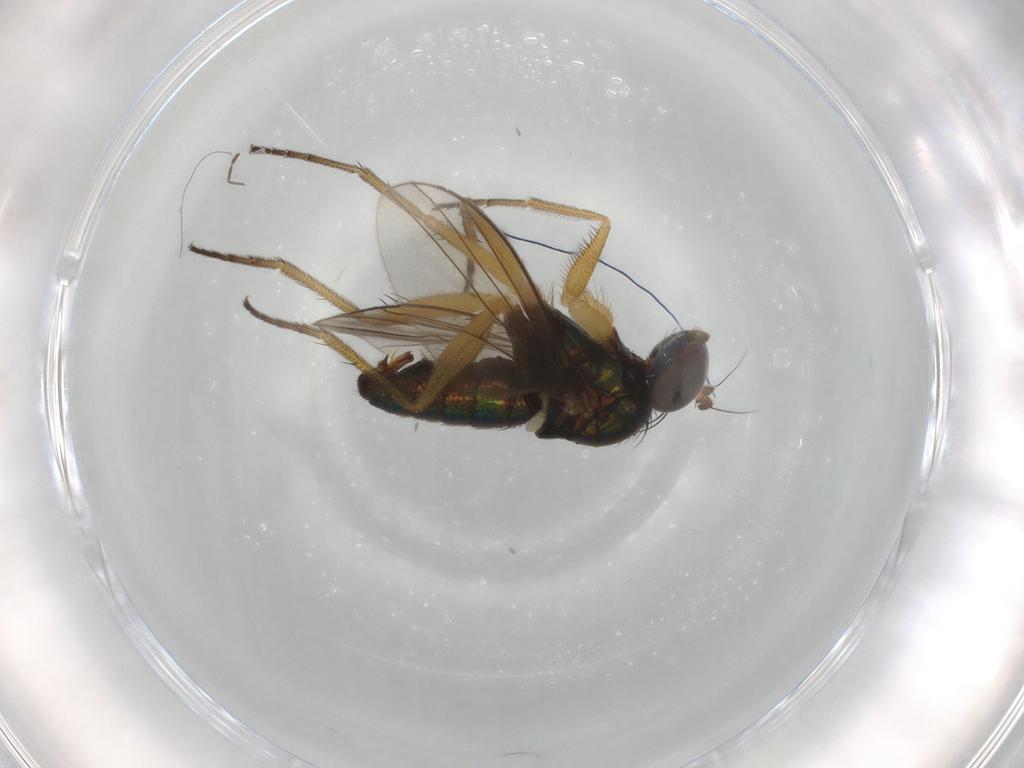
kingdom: Animalia
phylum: Arthropoda
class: Insecta
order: Diptera
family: Dolichopodidae
